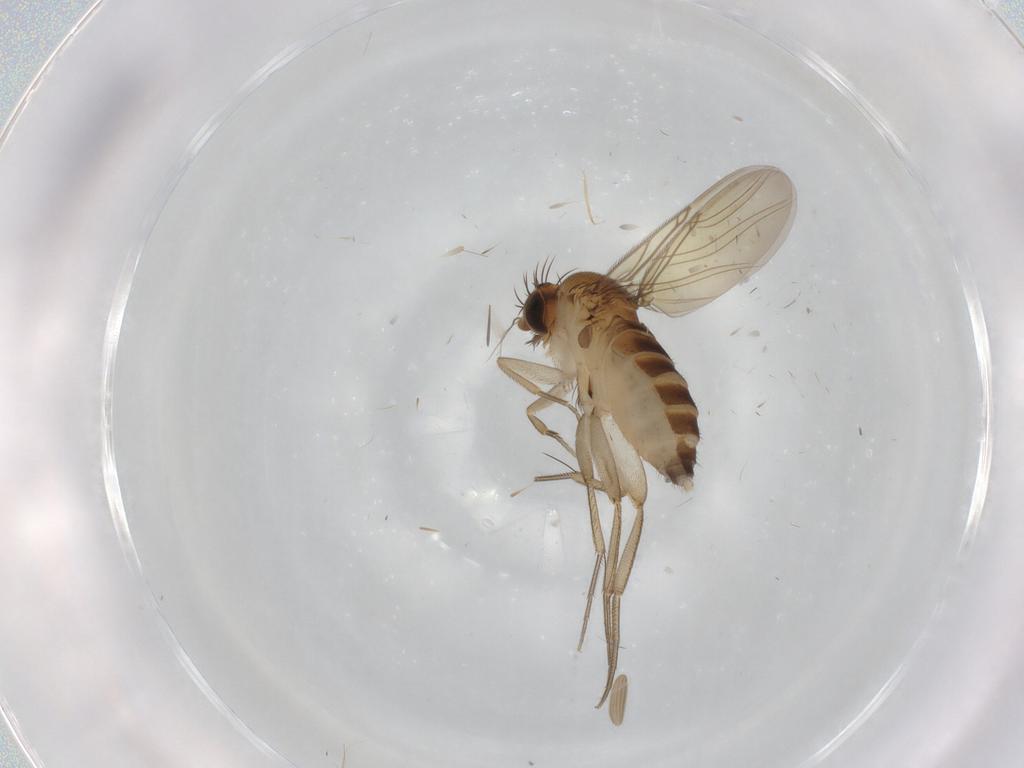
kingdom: Animalia
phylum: Arthropoda
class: Insecta
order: Diptera
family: Phoridae
